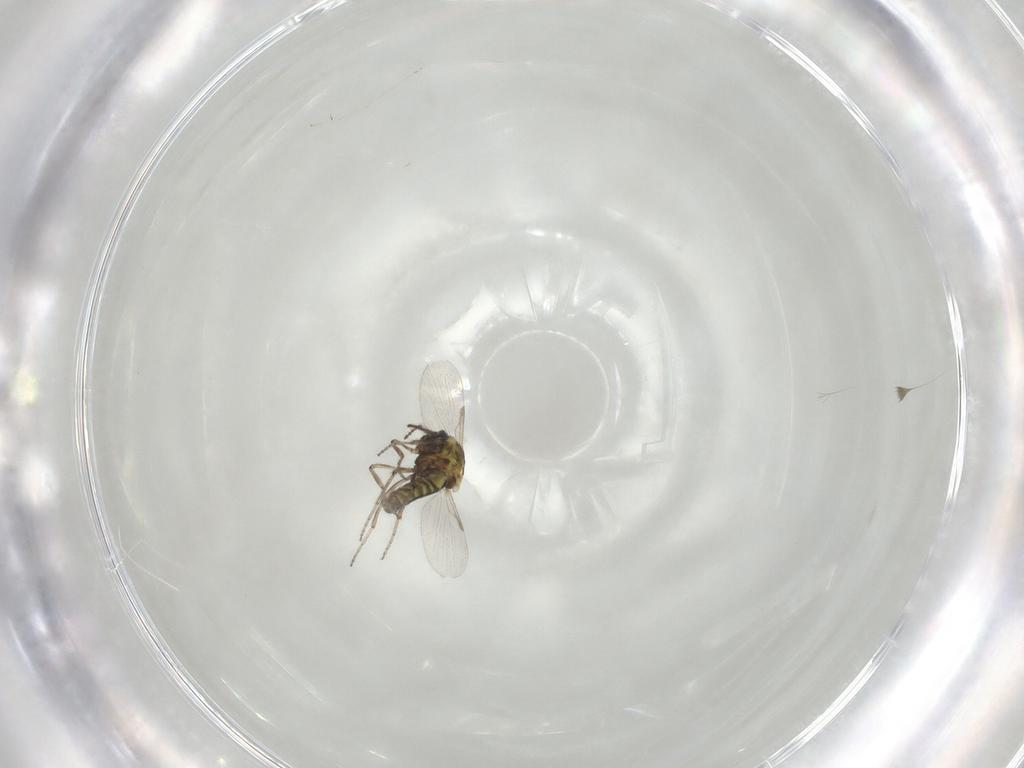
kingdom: Animalia
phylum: Arthropoda
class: Insecta
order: Diptera
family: Ceratopogonidae
